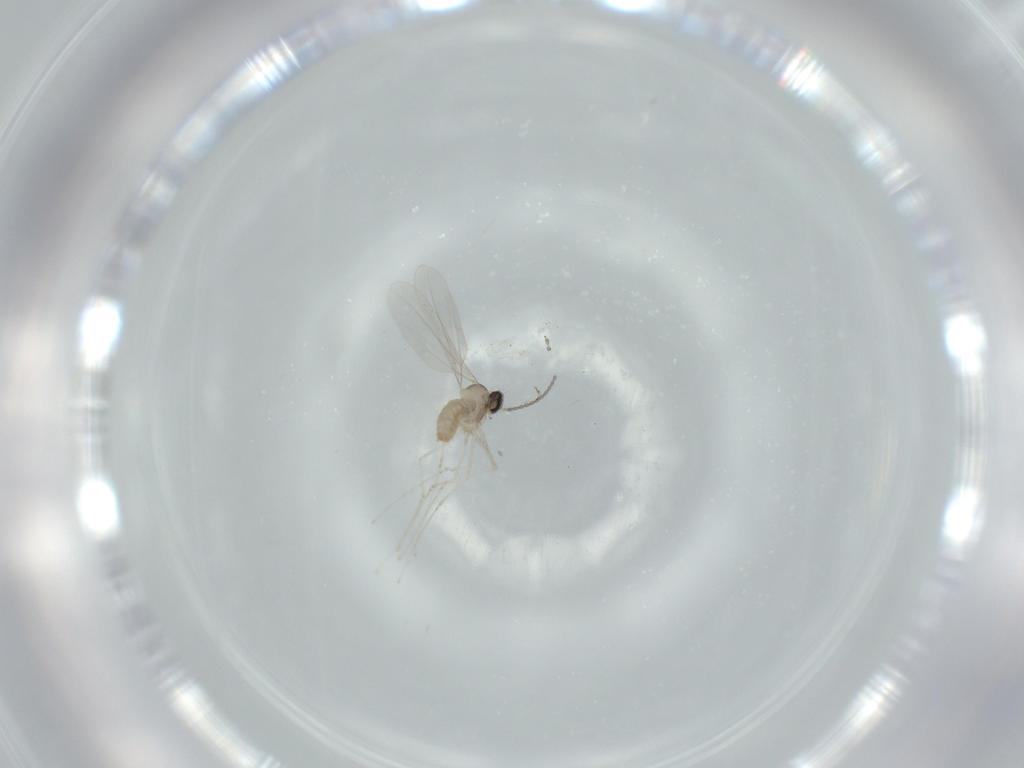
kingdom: Animalia
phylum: Arthropoda
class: Insecta
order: Diptera
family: Cecidomyiidae
